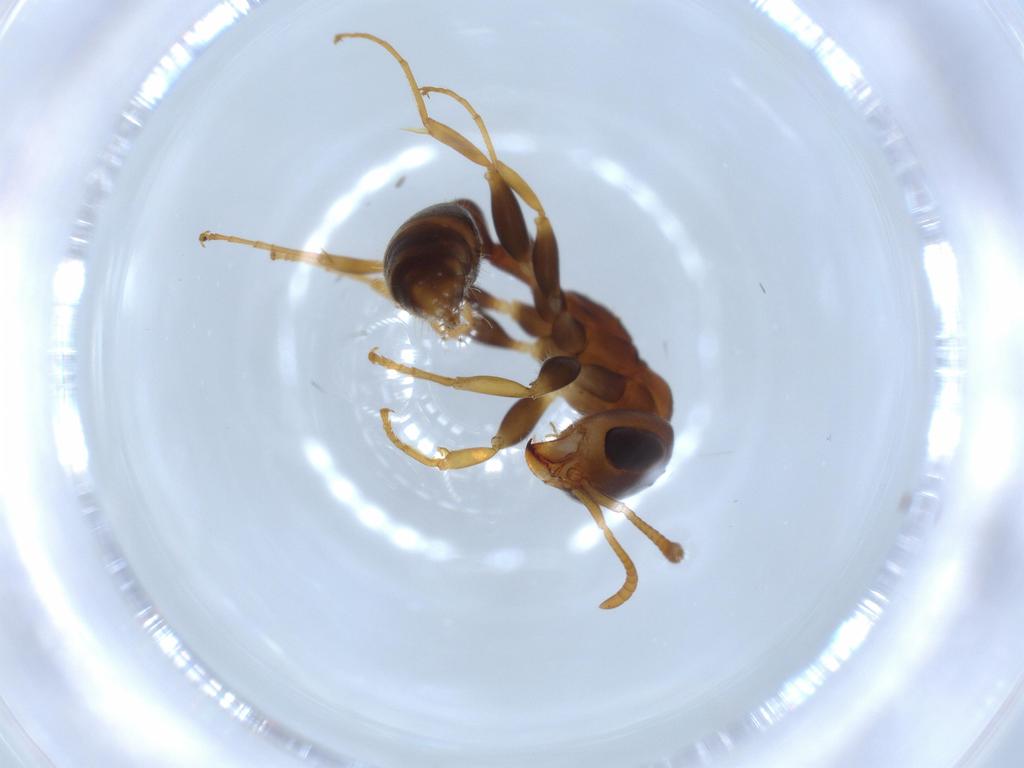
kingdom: Animalia
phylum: Arthropoda
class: Insecta
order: Hymenoptera
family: Formicidae
